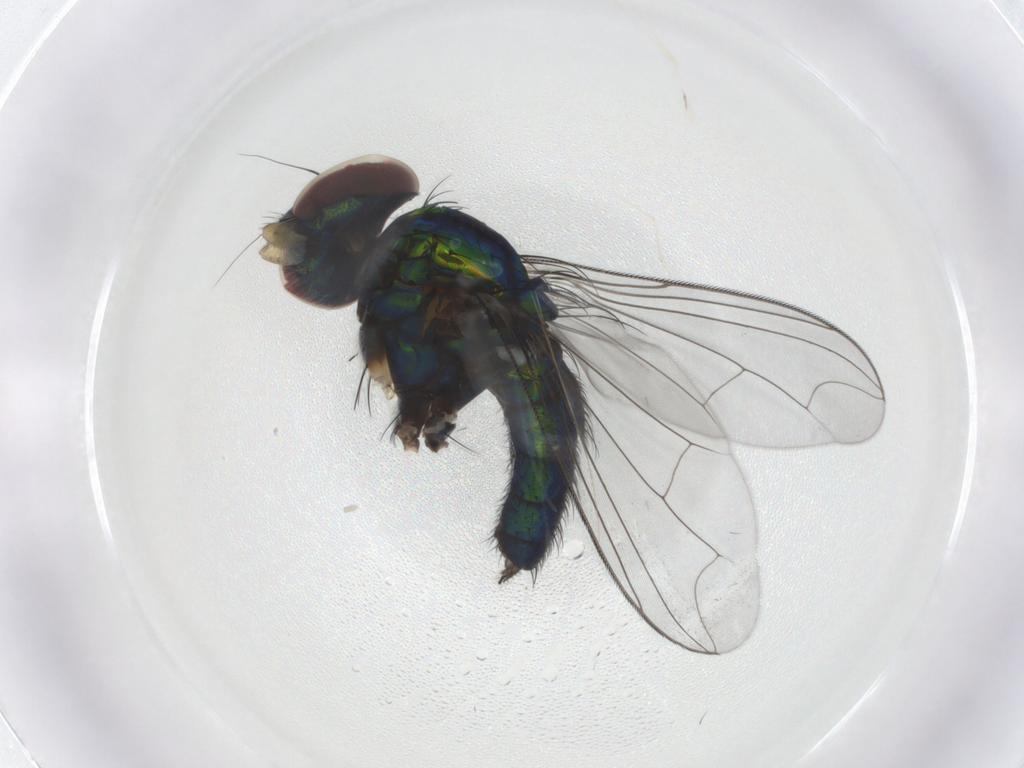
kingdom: Animalia
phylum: Arthropoda
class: Insecta
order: Diptera
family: Dolichopodidae
